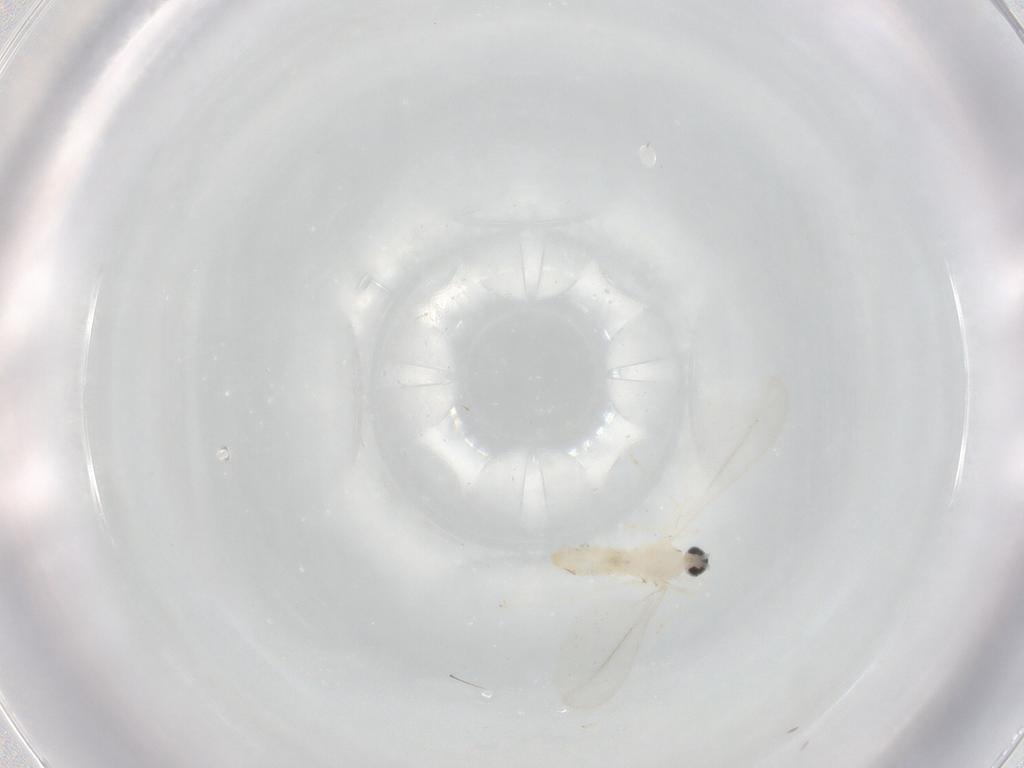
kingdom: Animalia
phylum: Arthropoda
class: Insecta
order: Diptera
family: Cecidomyiidae
